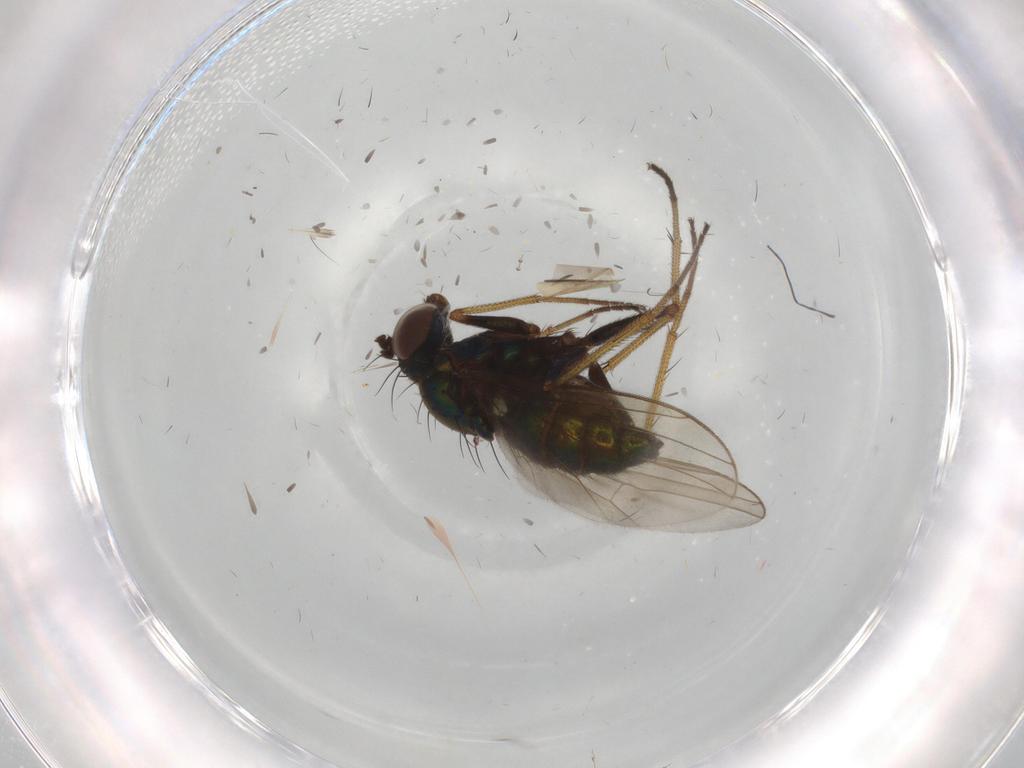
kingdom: Animalia
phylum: Arthropoda
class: Insecta
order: Diptera
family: Dolichopodidae
